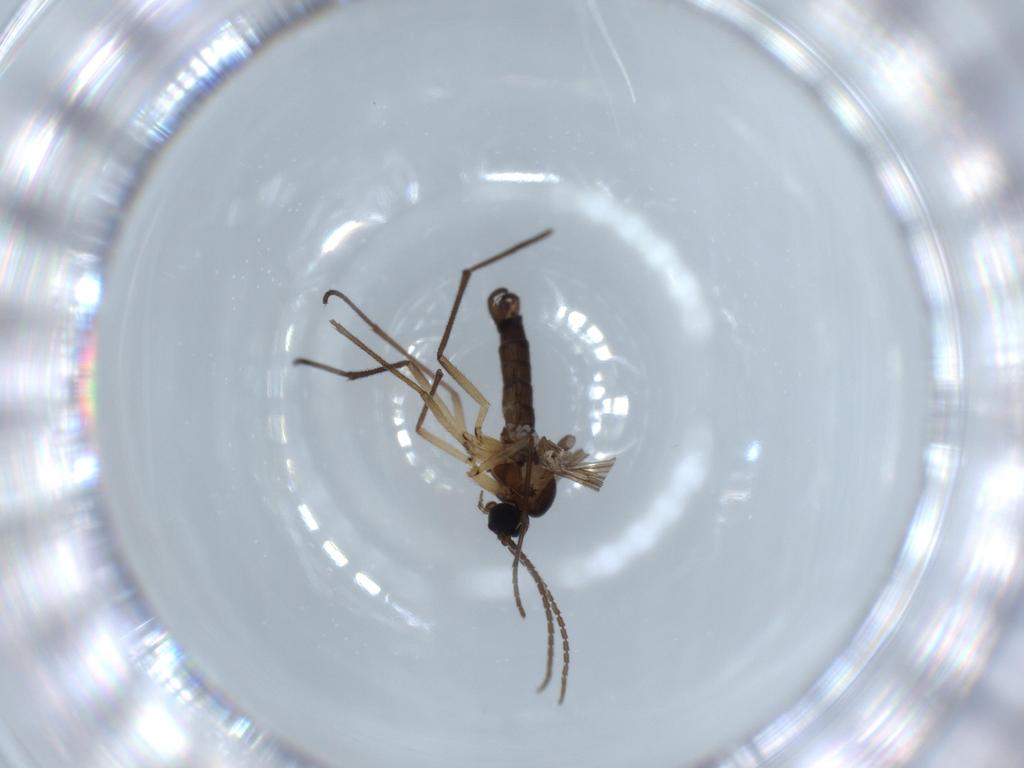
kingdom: Animalia
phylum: Arthropoda
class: Insecta
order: Diptera
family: Sciaridae
